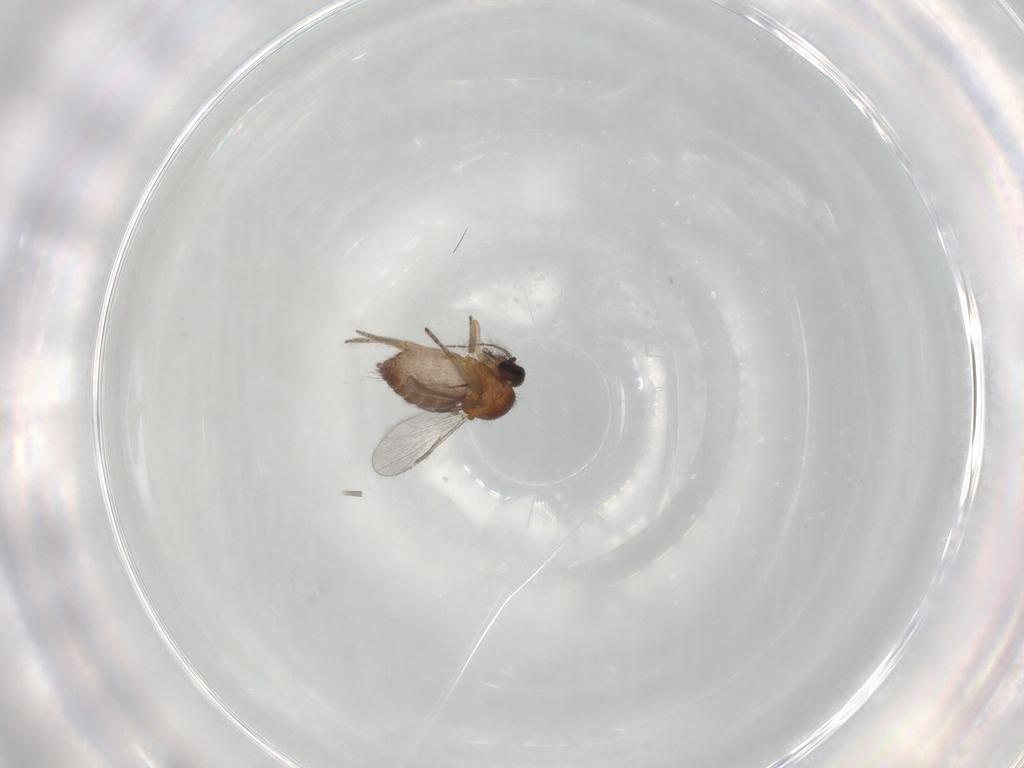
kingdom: Animalia
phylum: Arthropoda
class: Insecta
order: Diptera
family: Ceratopogonidae
